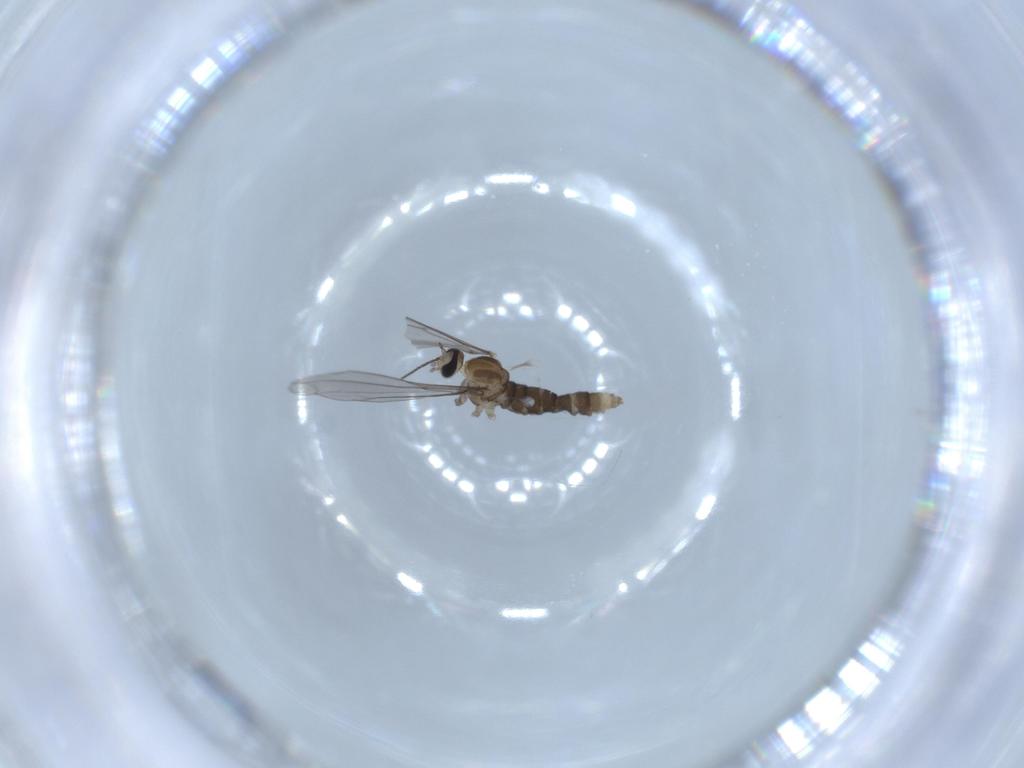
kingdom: Animalia
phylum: Arthropoda
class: Insecta
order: Diptera
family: Cecidomyiidae
